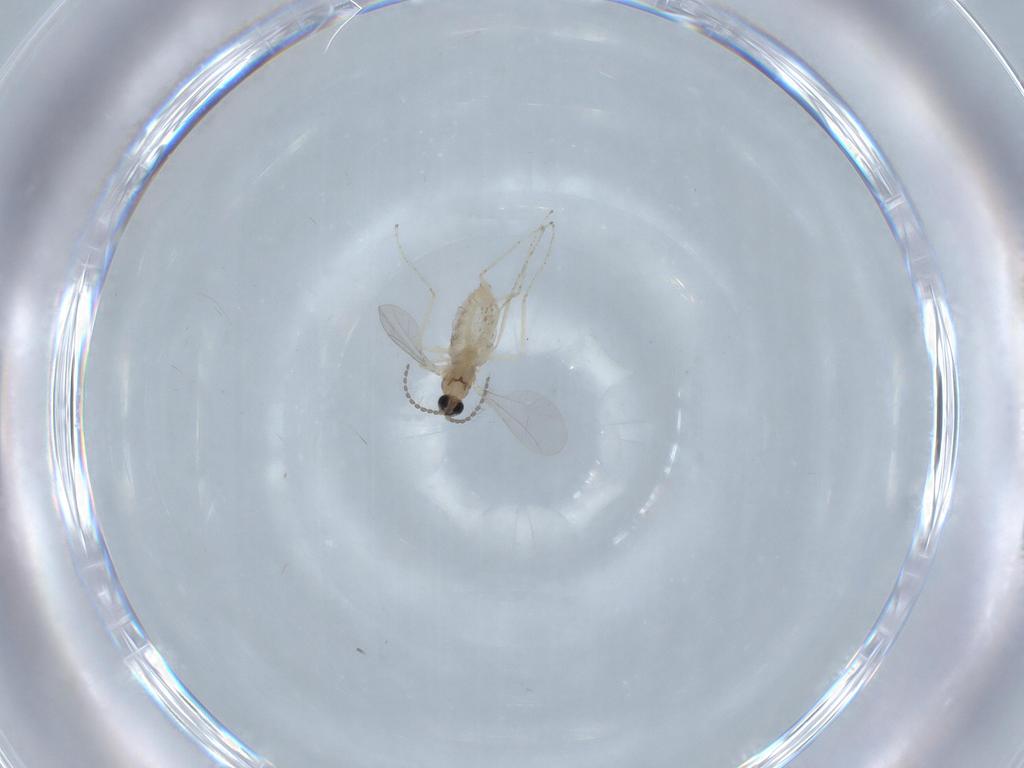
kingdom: Animalia
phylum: Arthropoda
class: Insecta
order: Diptera
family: Cecidomyiidae
